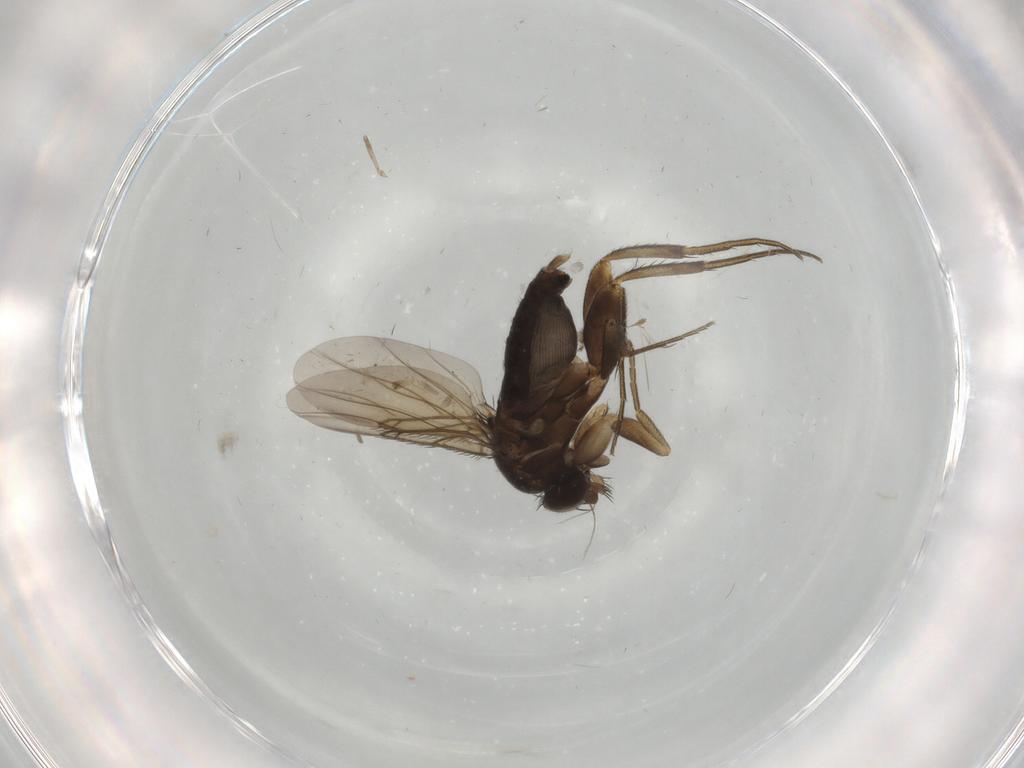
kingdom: Animalia
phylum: Arthropoda
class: Insecta
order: Diptera
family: Phoridae
